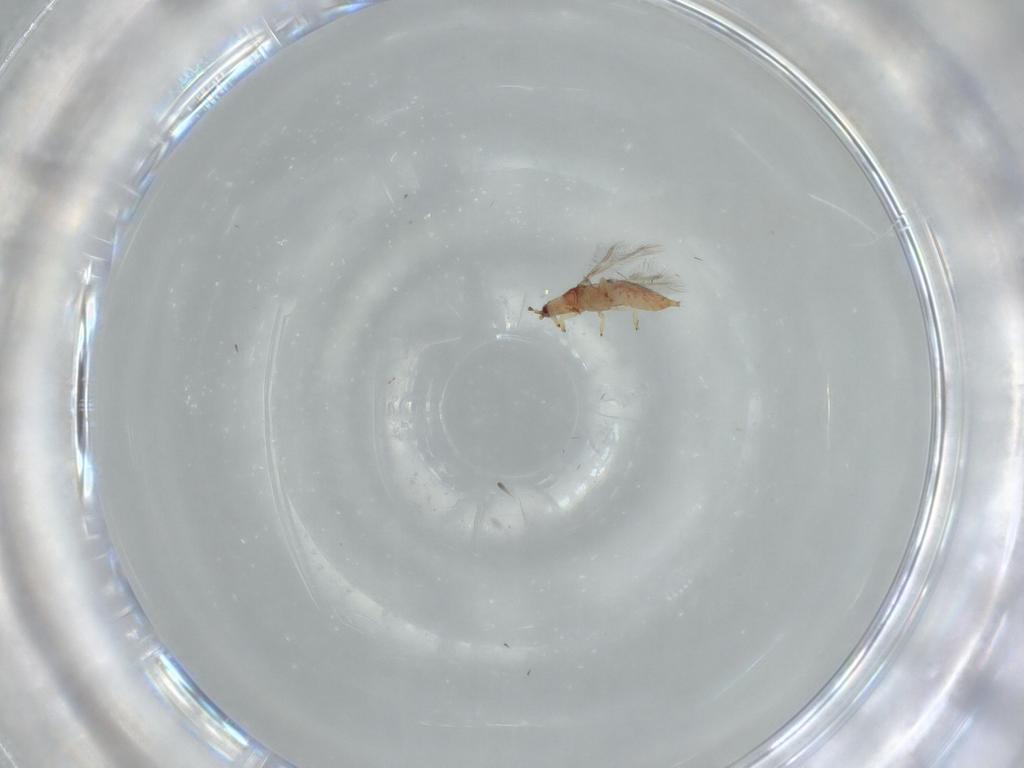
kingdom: Animalia
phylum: Arthropoda
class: Insecta
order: Thysanoptera
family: Phlaeothripidae
